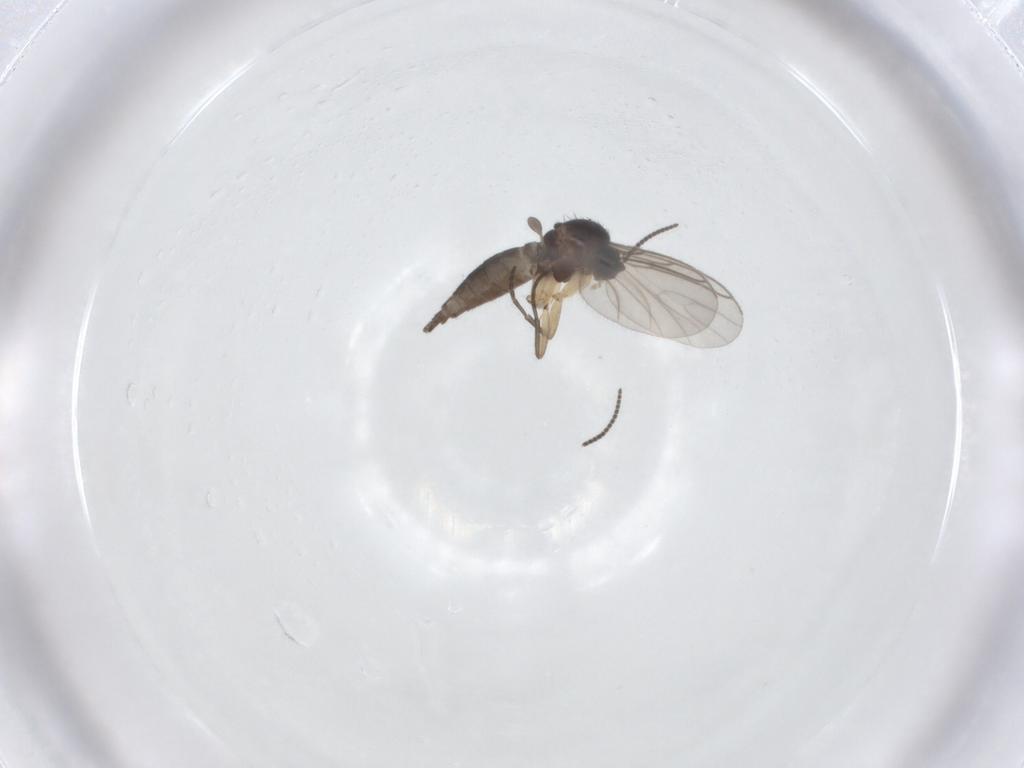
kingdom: Animalia
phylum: Arthropoda
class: Insecta
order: Diptera
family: Sciaridae
